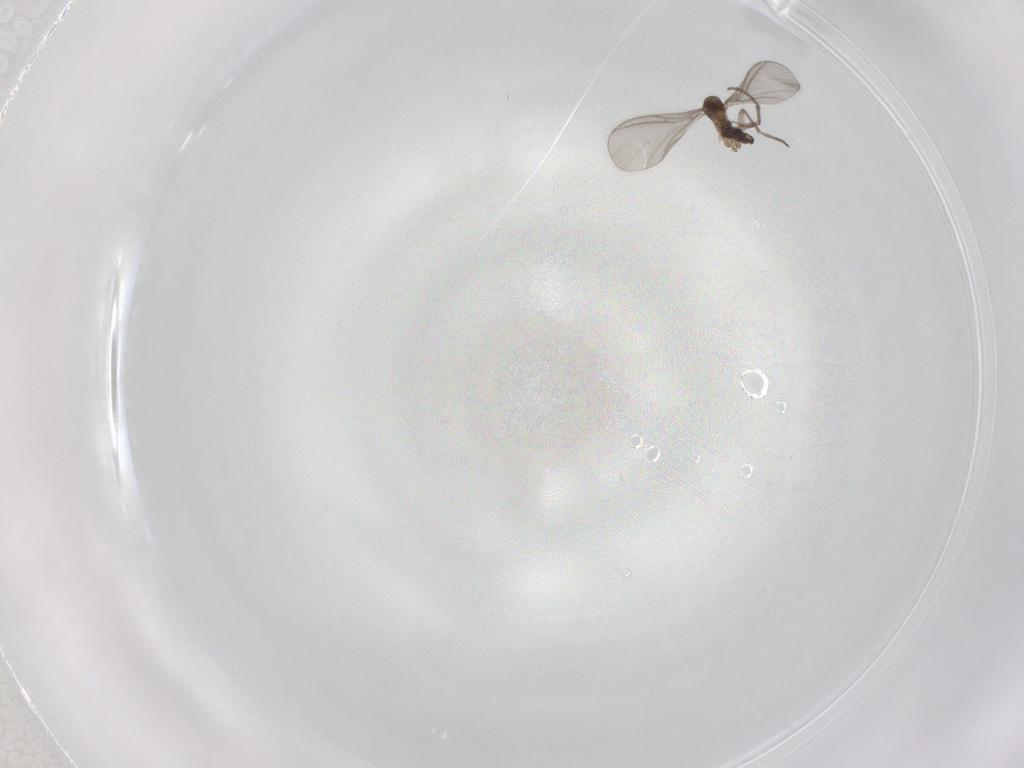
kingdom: Animalia
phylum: Arthropoda
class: Insecta
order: Diptera
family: Sciaridae
